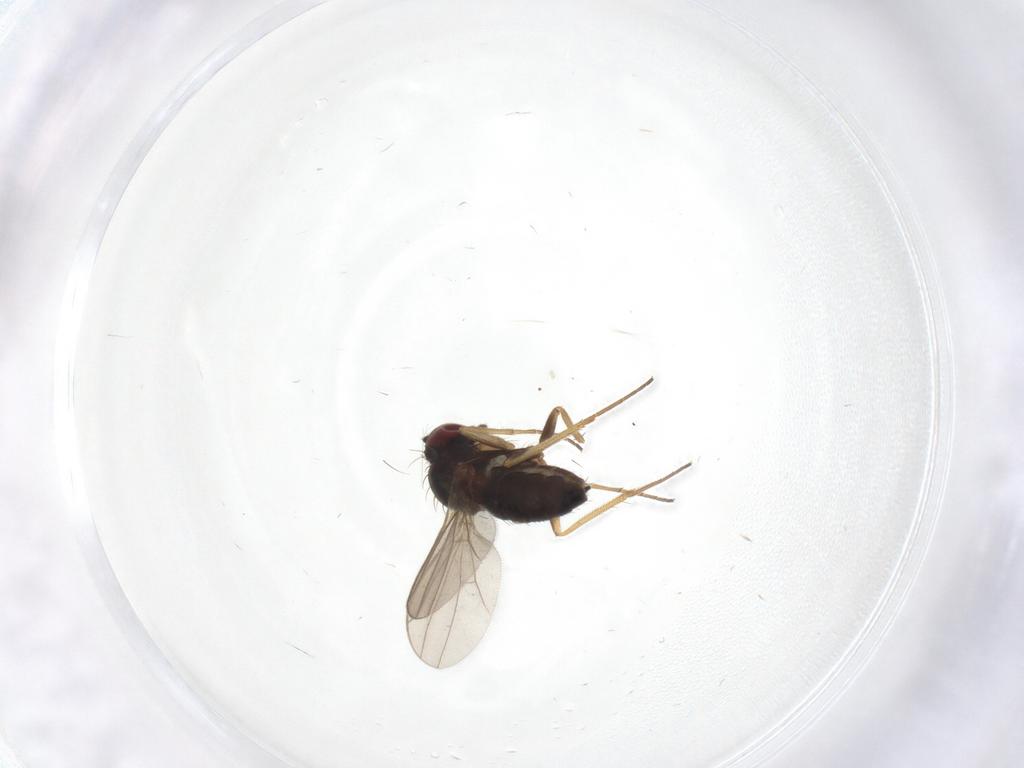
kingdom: Animalia
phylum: Arthropoda
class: Insecta
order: Diptera
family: Dolichopodidae
